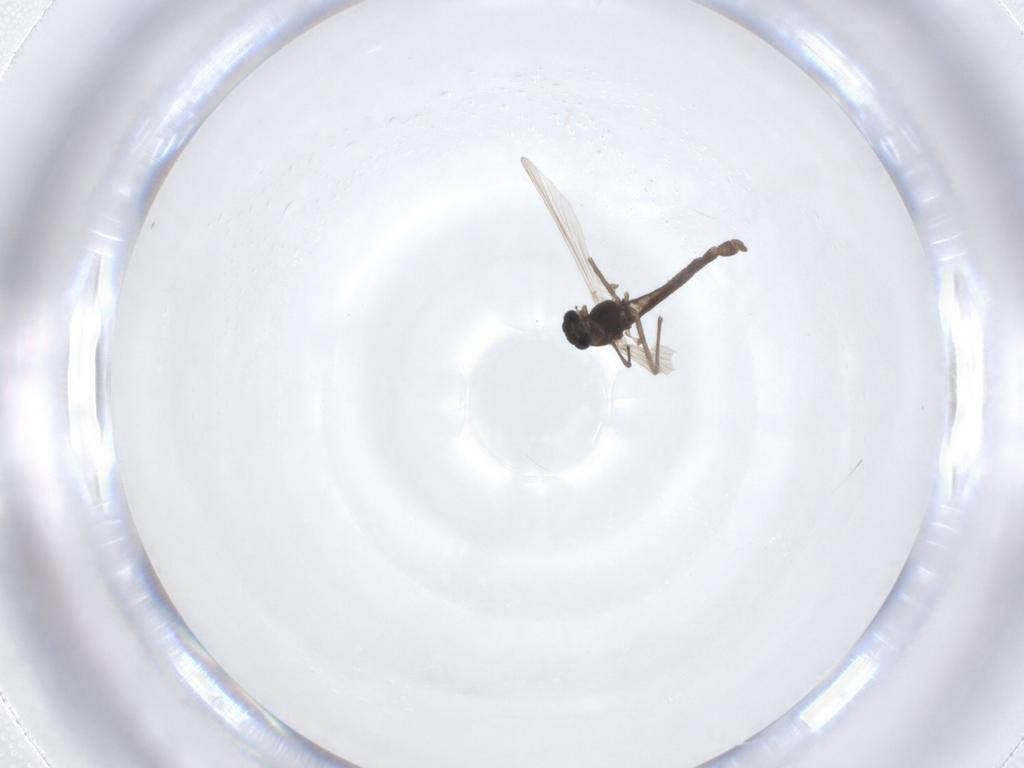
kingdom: Animalia
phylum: Arthropoda
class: Insecta
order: Diptera
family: Chironomidae
